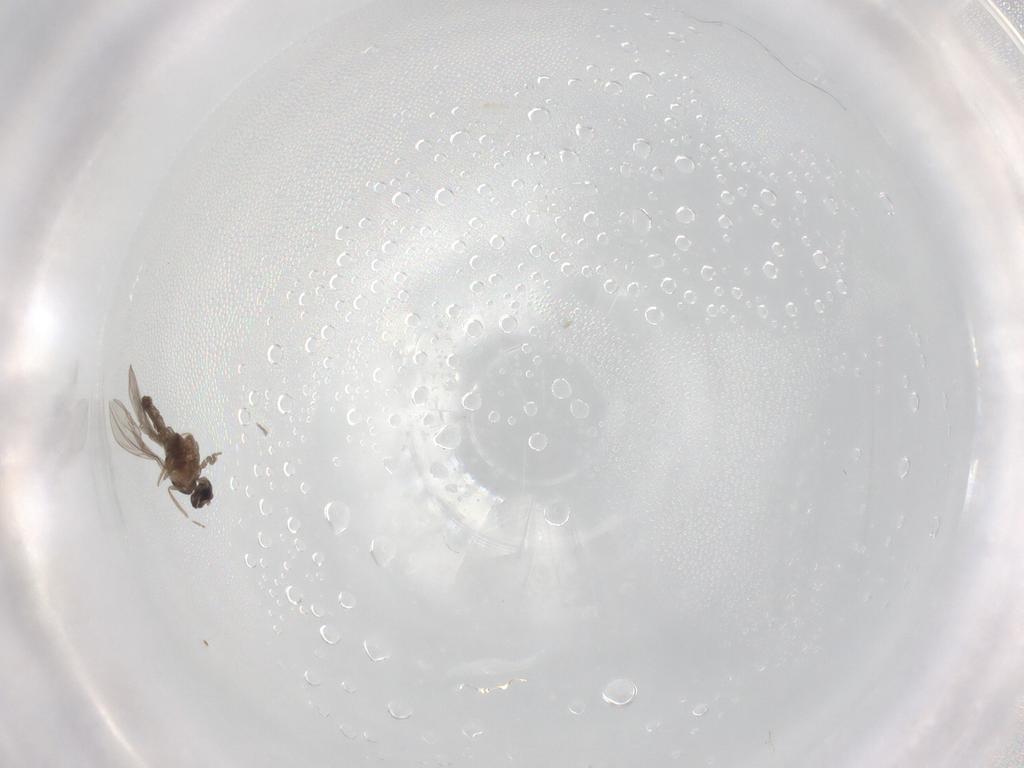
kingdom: Animalia
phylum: Arthropoda
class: Insecta
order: Diptera
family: Cecidomyiidae
